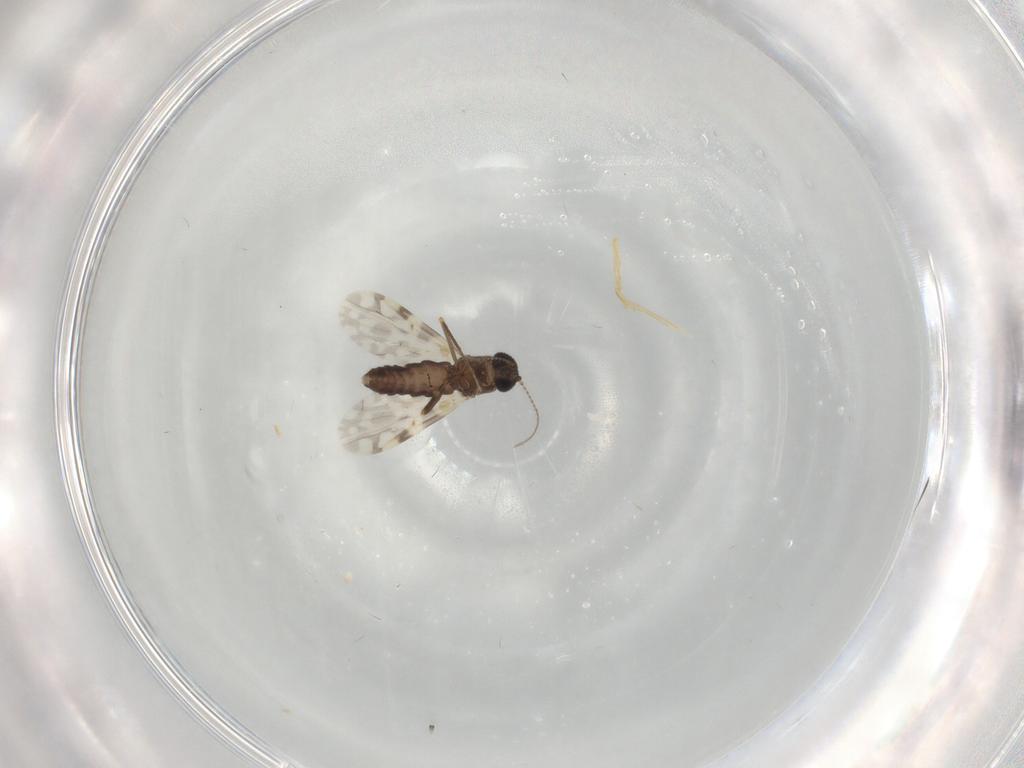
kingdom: Animalia
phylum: Arthropoda
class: Insecta
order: Diptera
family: Ceratopogonidae
